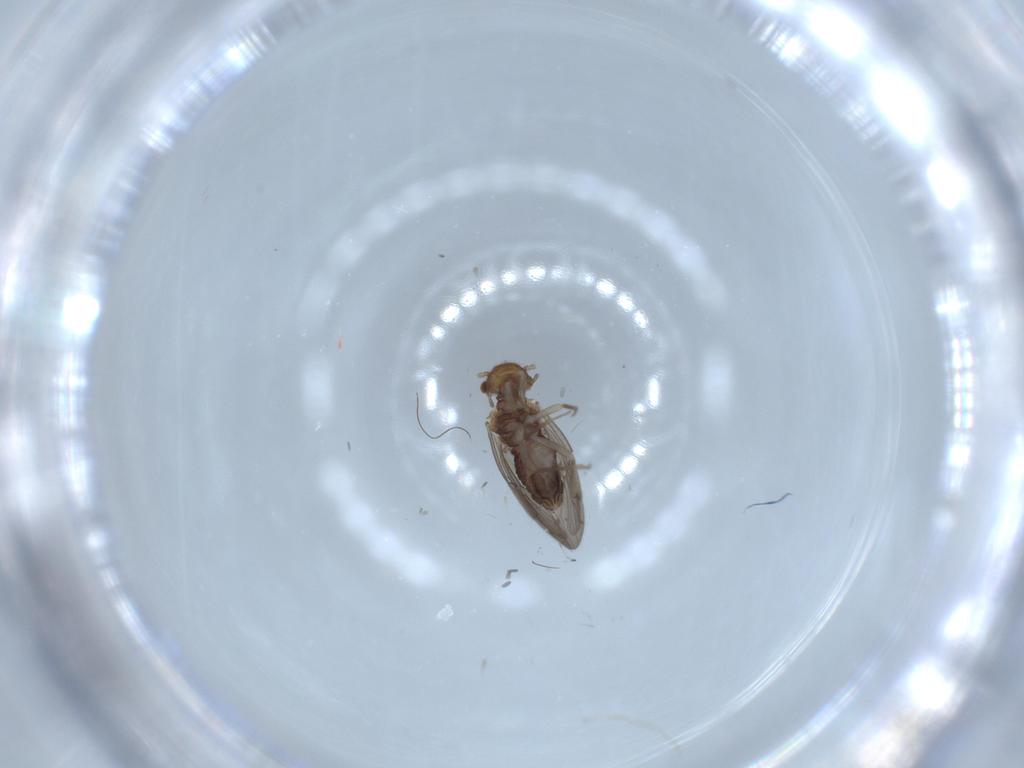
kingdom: Animalia
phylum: Arthropoda
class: Insecta
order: Psocodea
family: Ectopsocidae
